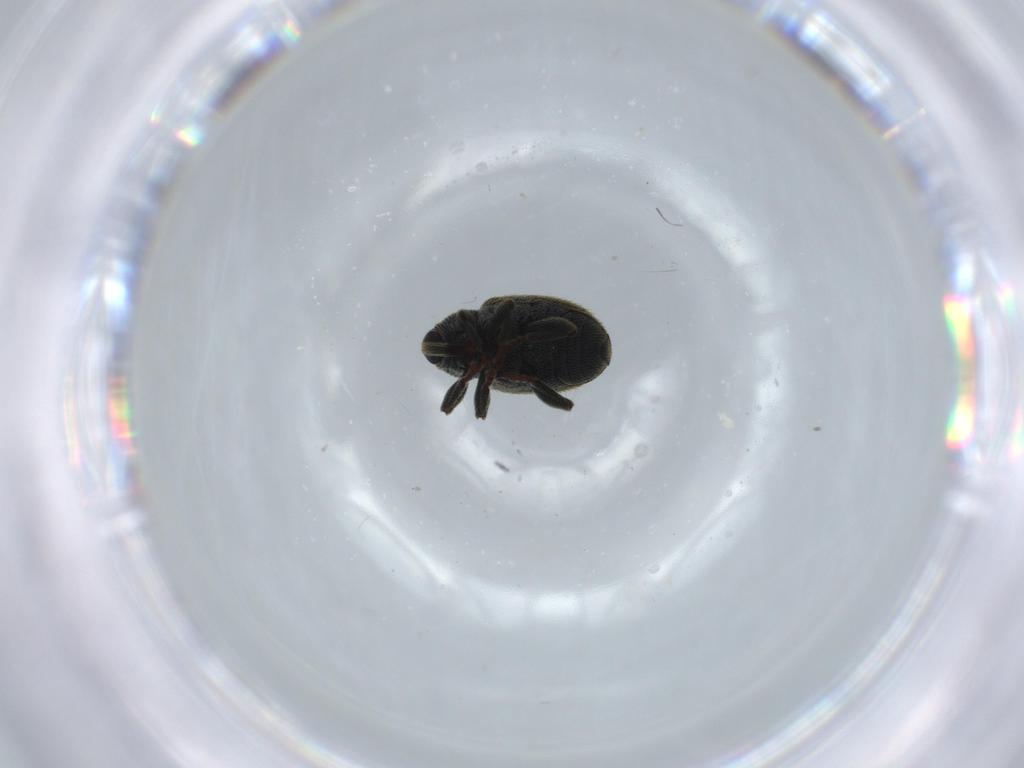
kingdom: Animalia
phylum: Arthropoda
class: Insecta
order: Coleoptera
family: Curculionidae
